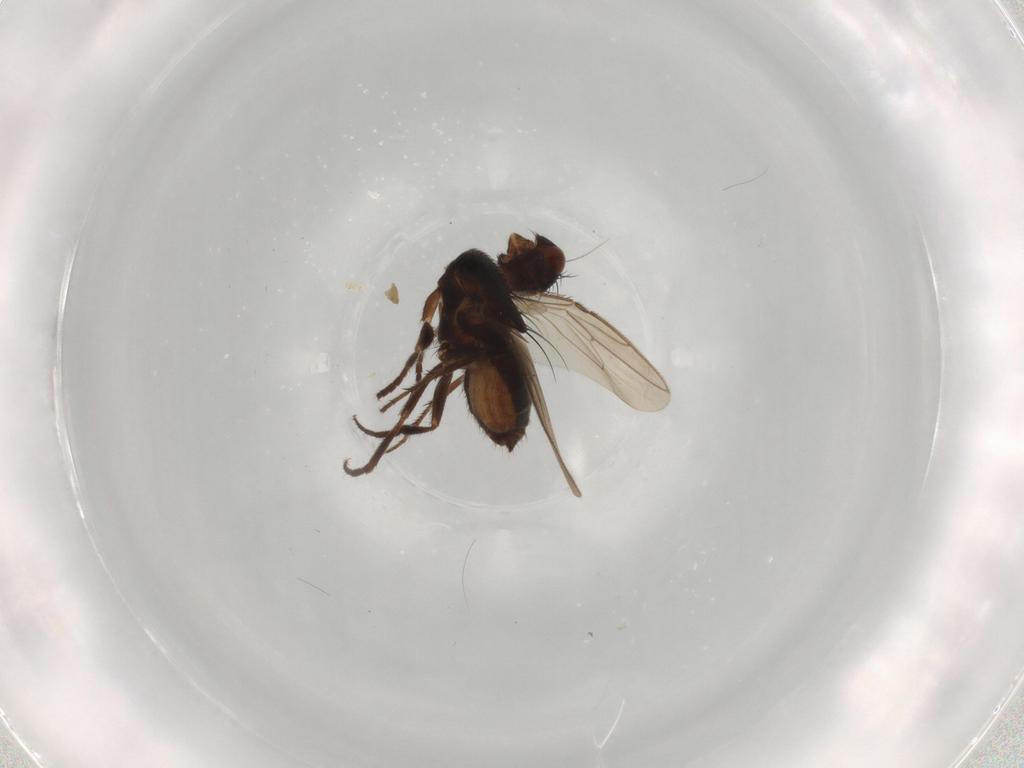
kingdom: Animalia
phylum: Arthropoda
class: Insecta
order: Diptera
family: Sphaeroceridae
